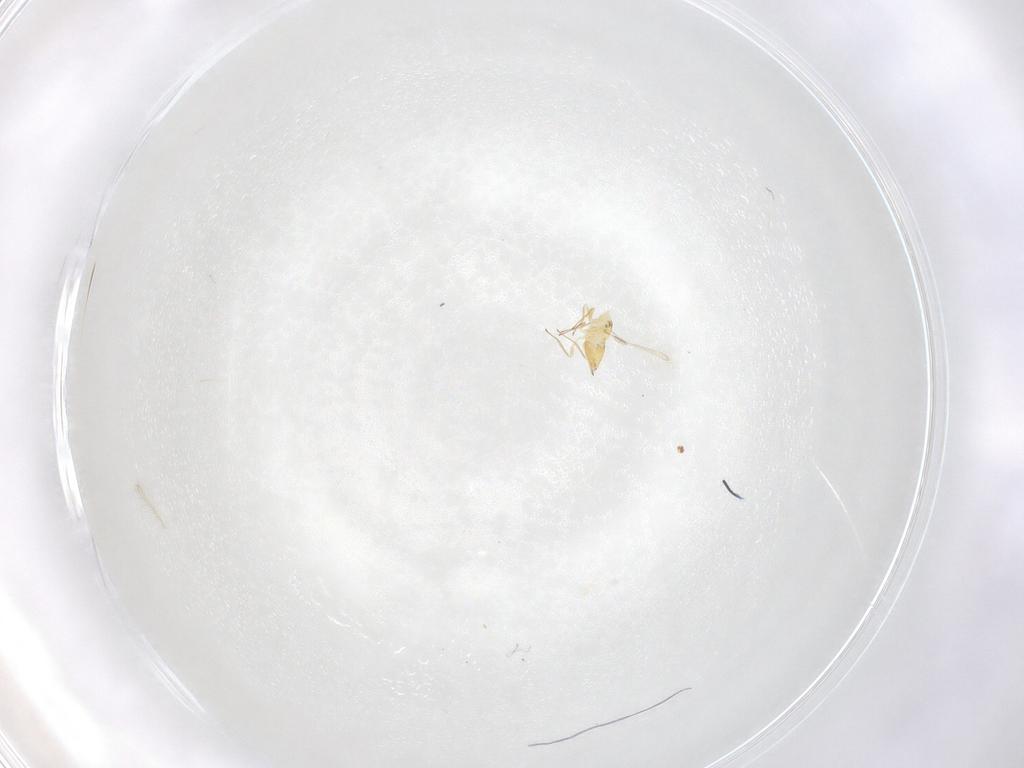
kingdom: Animalia
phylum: Arthropoda
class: Insecta
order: Hymenoptera
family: Mymaridae
